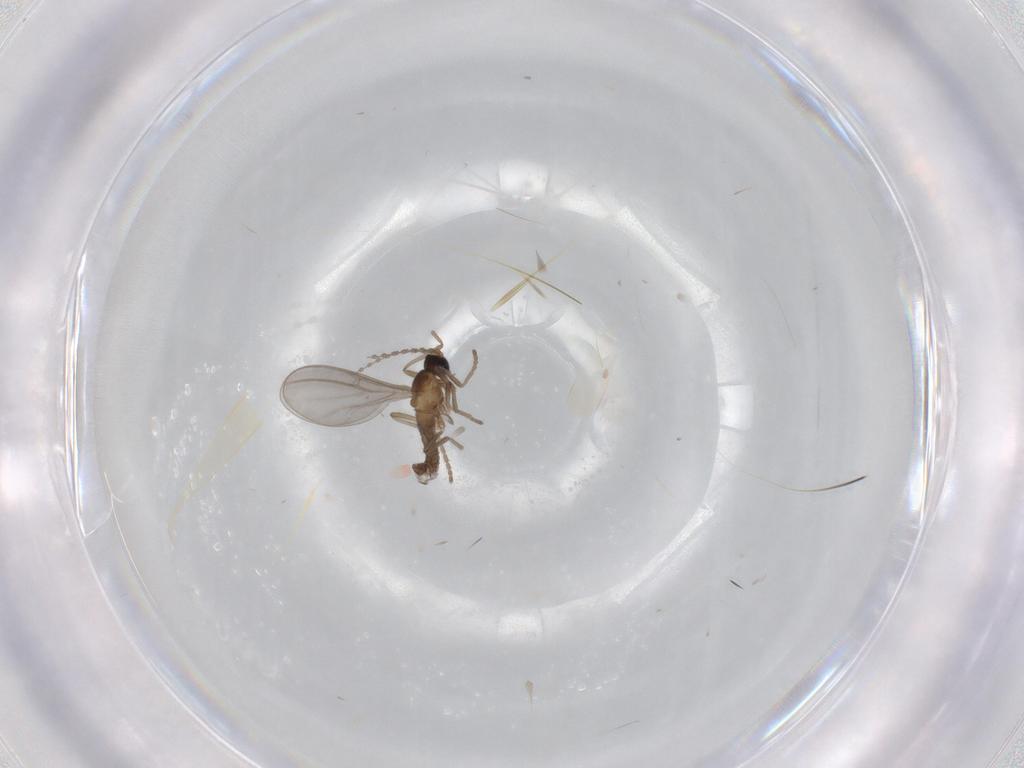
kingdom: Animalia
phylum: Arthropoda
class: Insecta
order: Diptera
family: Cecidomyiidae
